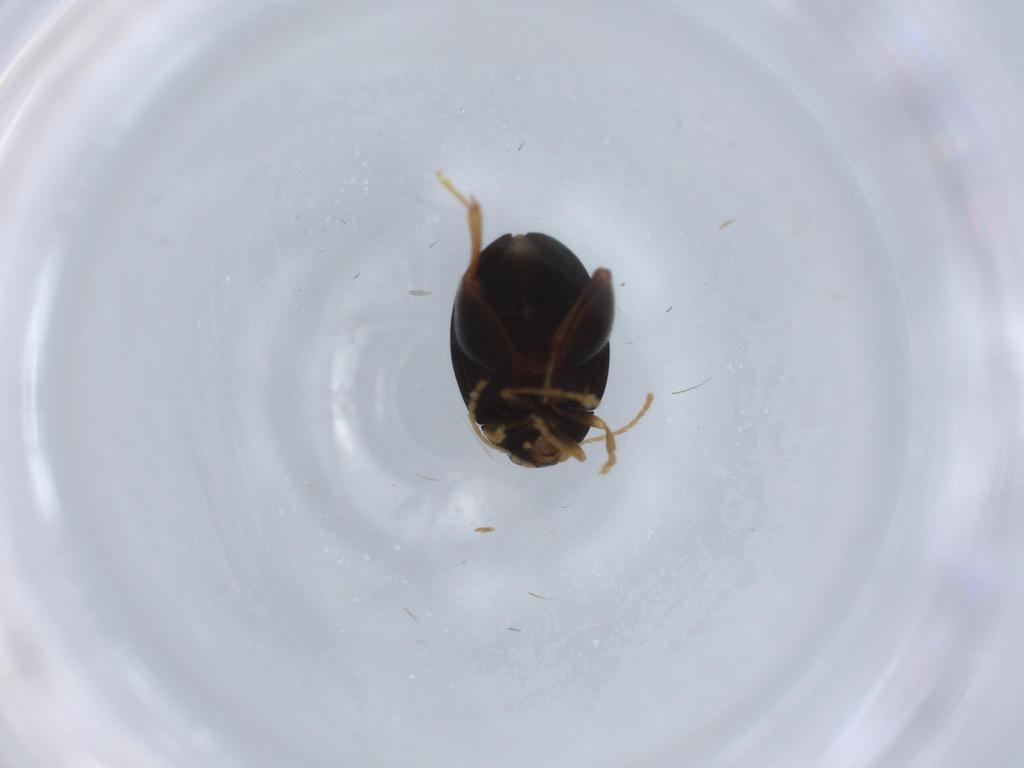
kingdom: Animalia
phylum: Arthropoda
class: Insecta
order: Coleoptera
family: Chrysomelidae
